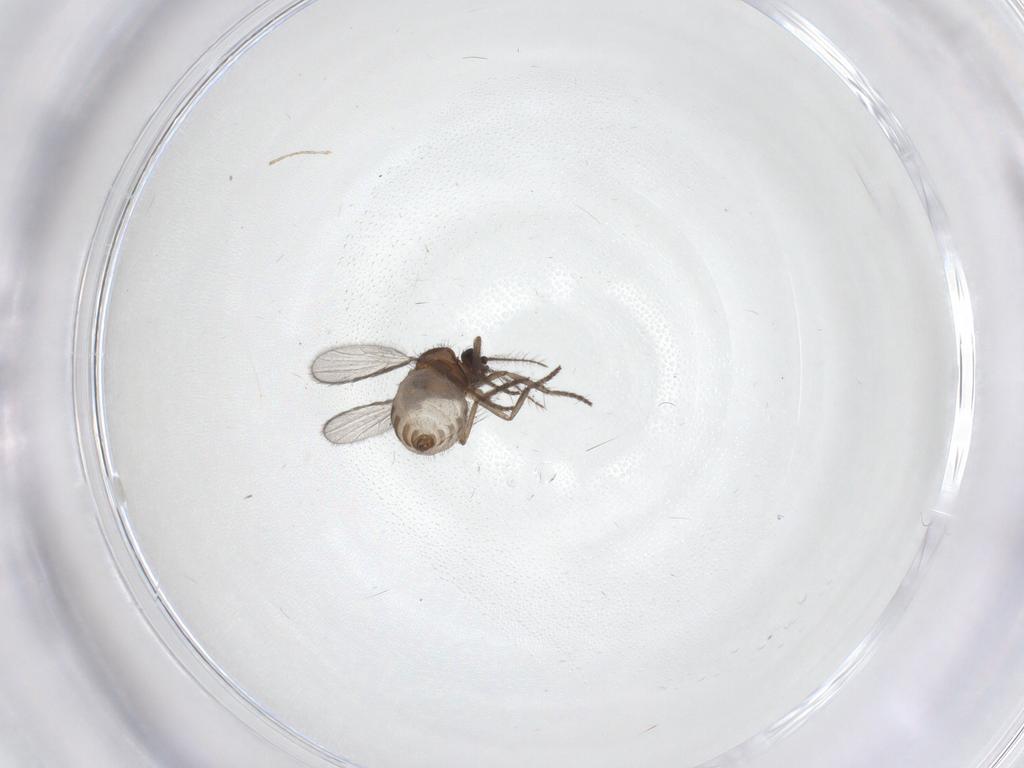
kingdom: Animalia
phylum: Arthropoda
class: Insecta
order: Diptera
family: Cecidomyiidae
